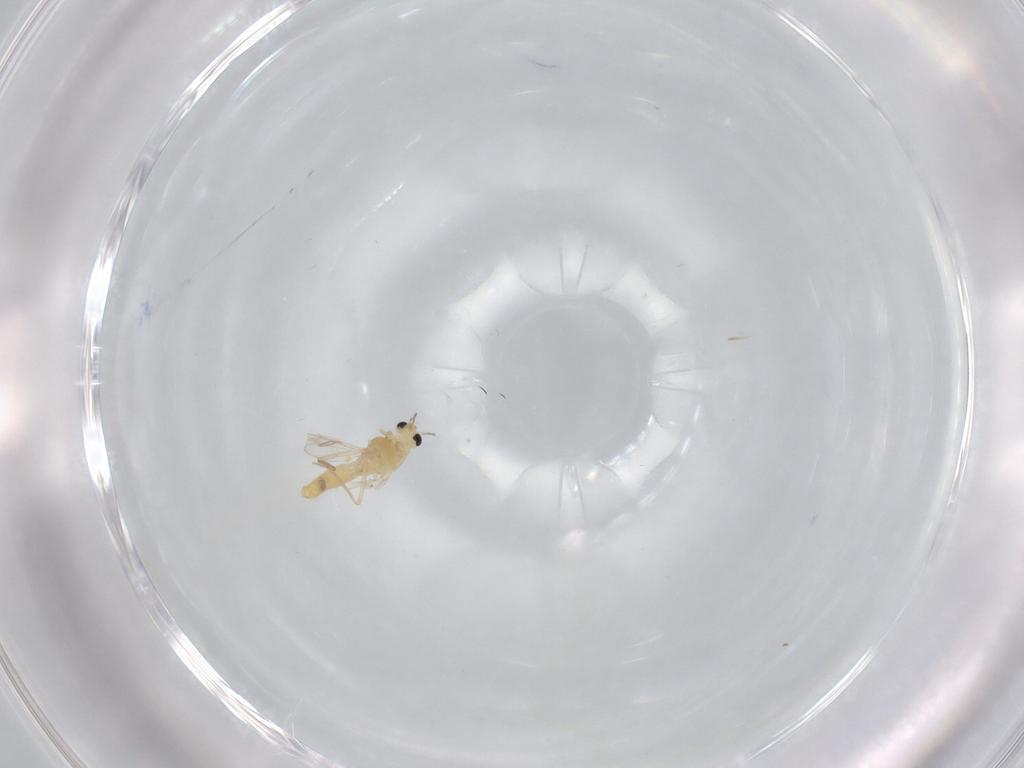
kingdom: Animalia
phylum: Arthropoda
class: Insecta
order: Diptera
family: Chironomidae
